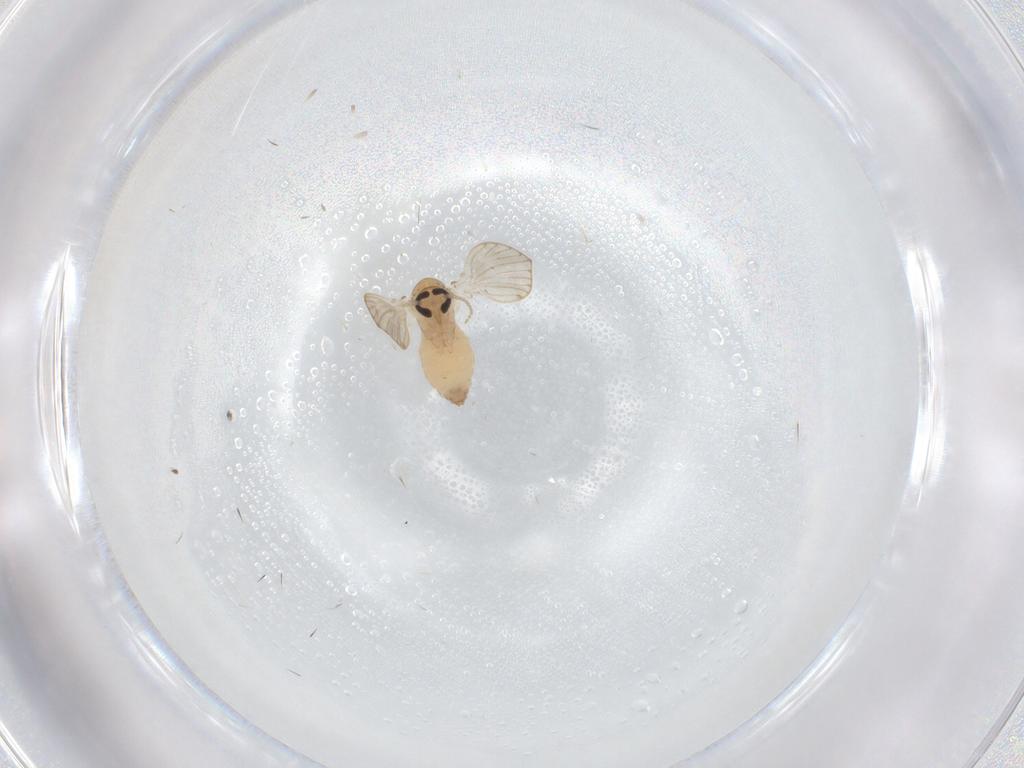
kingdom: Animalia
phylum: Arthropoda
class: Insecta
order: Diptera
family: Psychodidae
